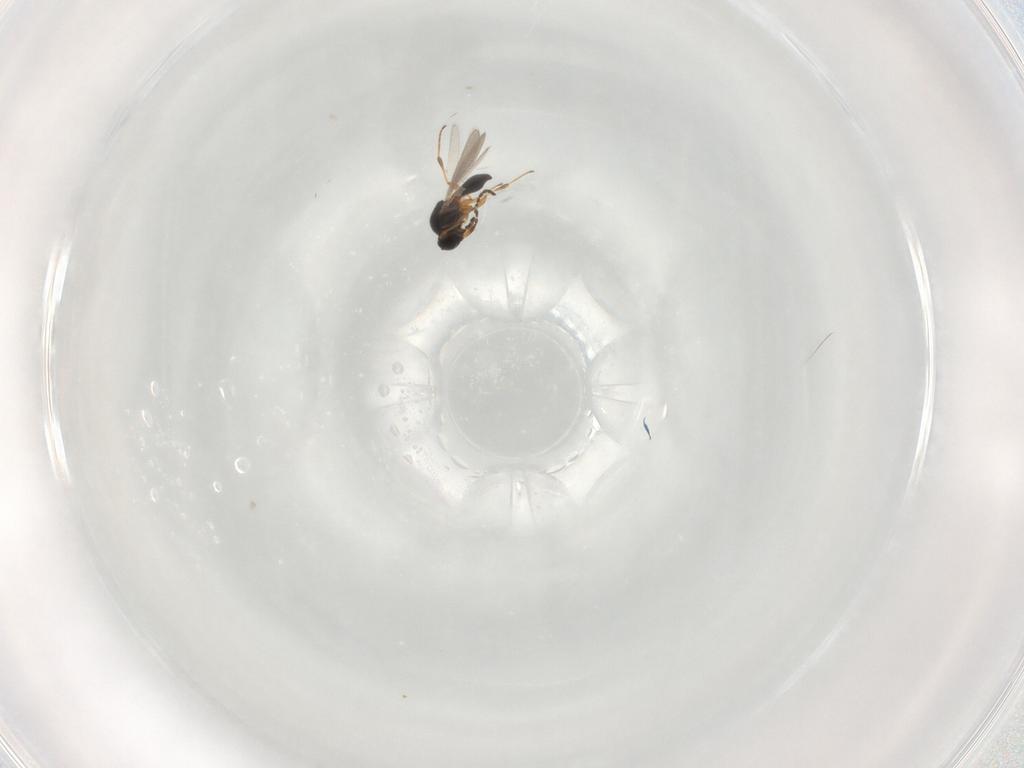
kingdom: Animalia
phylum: Arthropoda
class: Insecta
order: Hymenoptera
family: Platygastridae
